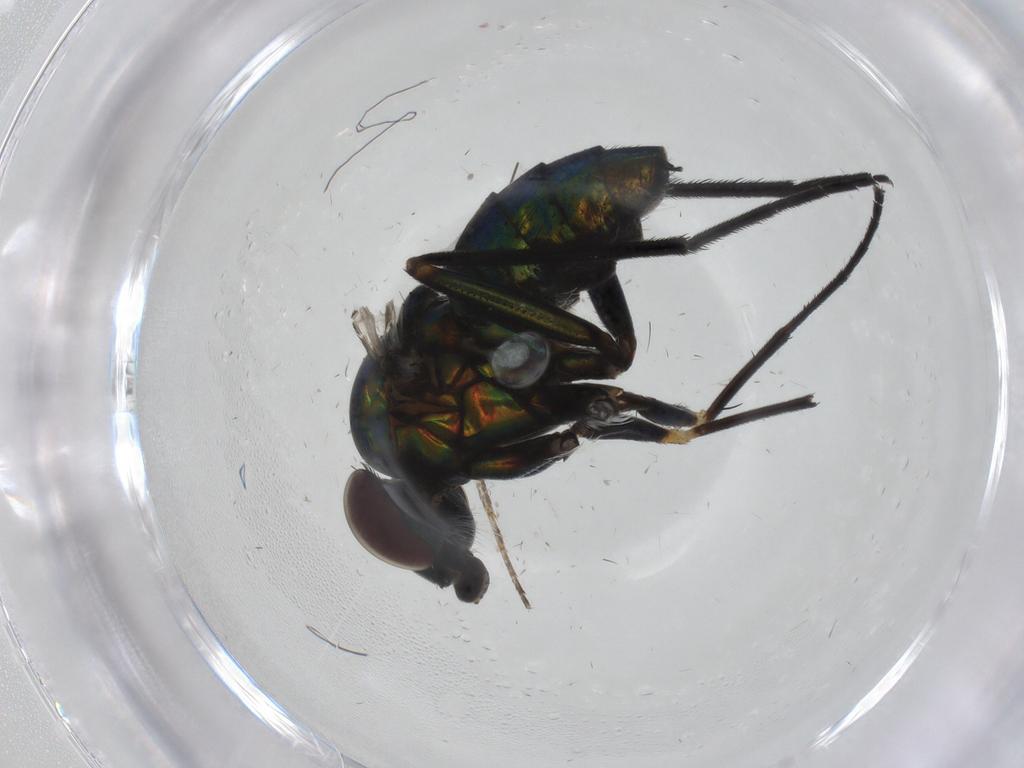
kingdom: Animalia
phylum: Arthropoda
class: Insecta
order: Diptera
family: Dolichopodidae
